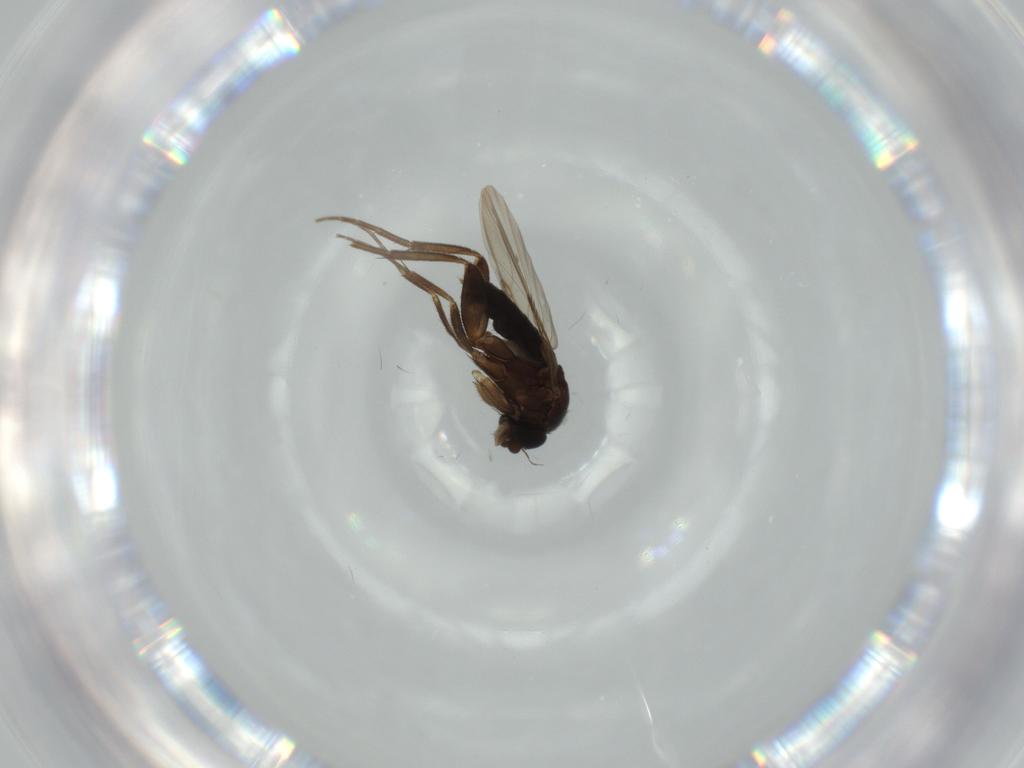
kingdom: Animalia
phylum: Arthropoda
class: Insecta
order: Diptera
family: Phoridae
